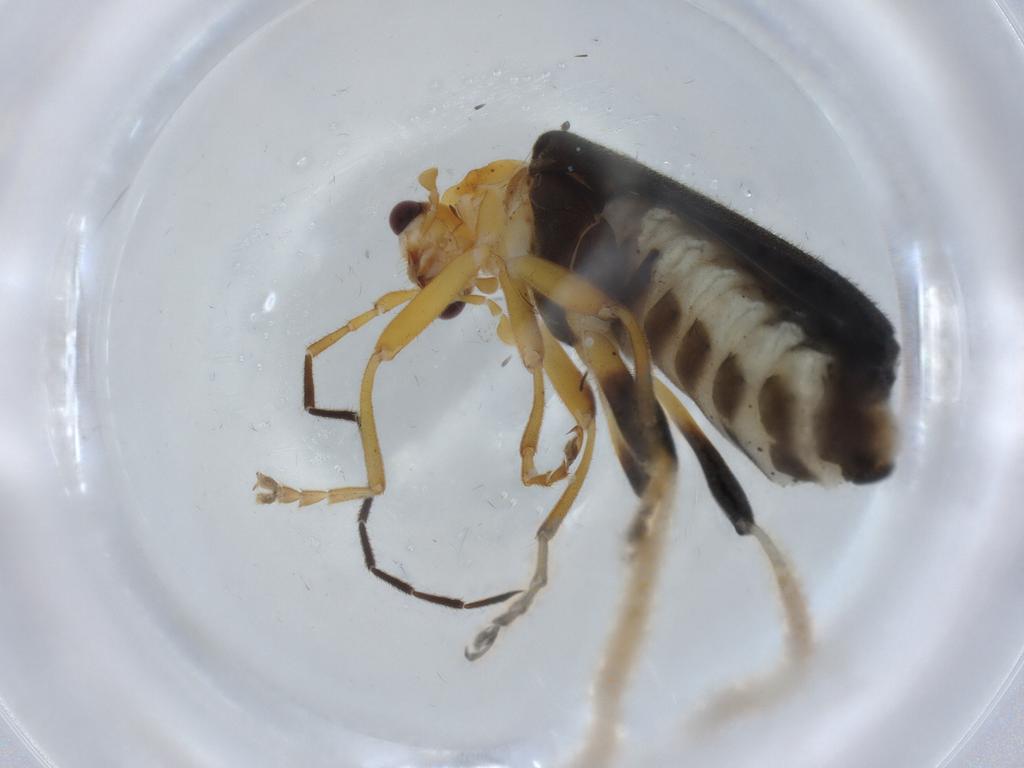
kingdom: Animalia
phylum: Arthropoda
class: Insecta
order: Coleoptera
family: Cantharidae
